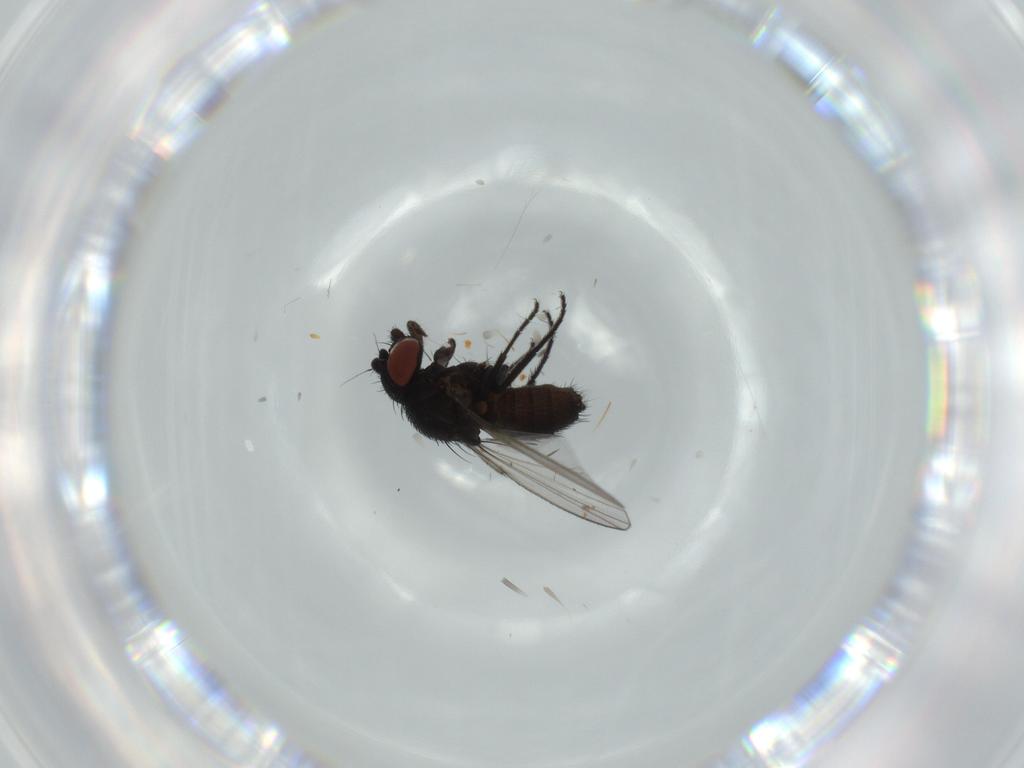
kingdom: Animalia
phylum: Arthropoda
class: Insecta
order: Diptera
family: Milichiidae
